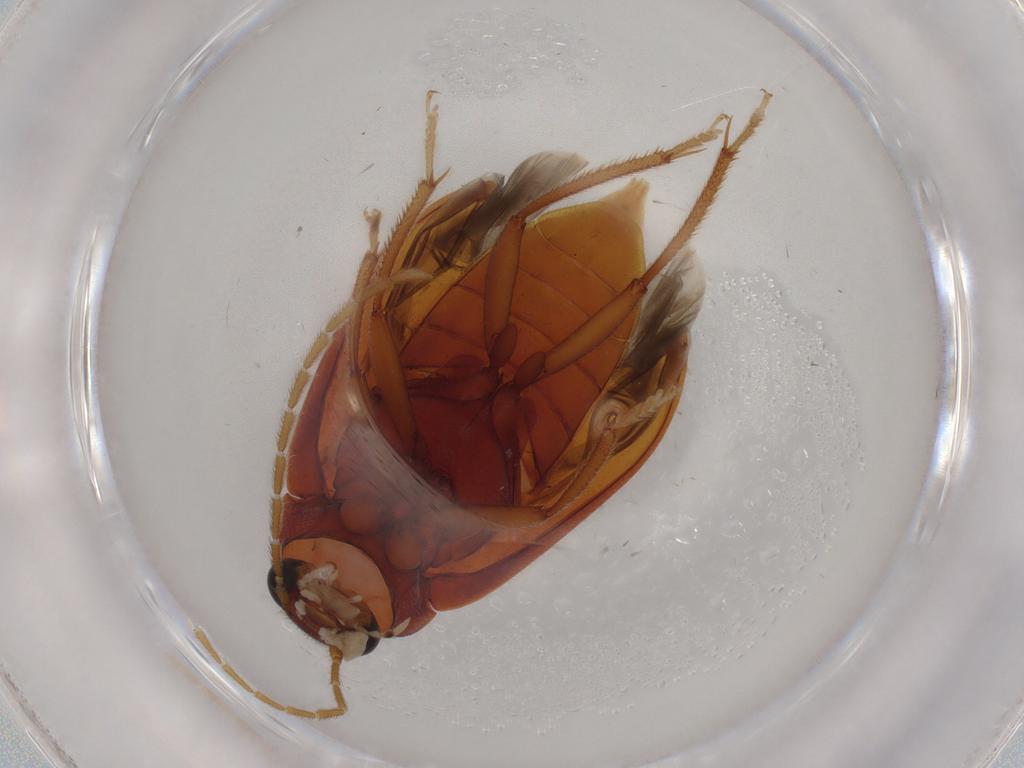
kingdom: Animalia
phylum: Arthropoda
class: Insecta
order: Coleoptera
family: Ptilodactylidae
